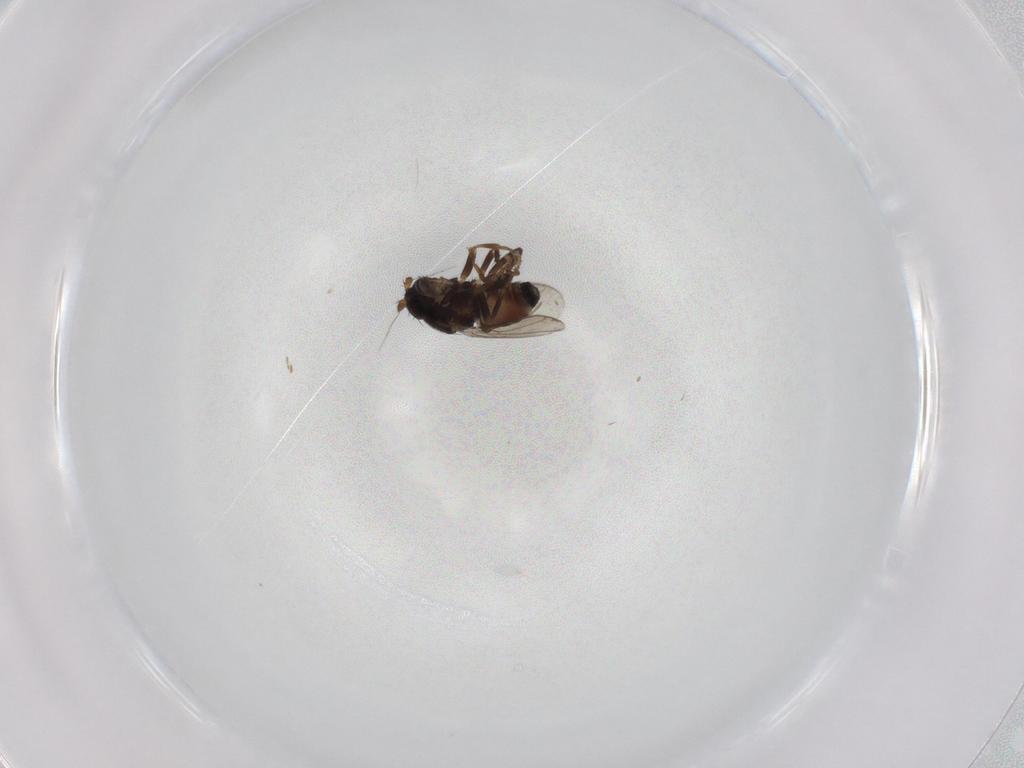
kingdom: Animalia
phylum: Arthropoda
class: Insecta
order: Diptera
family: Sphaeroceridae
